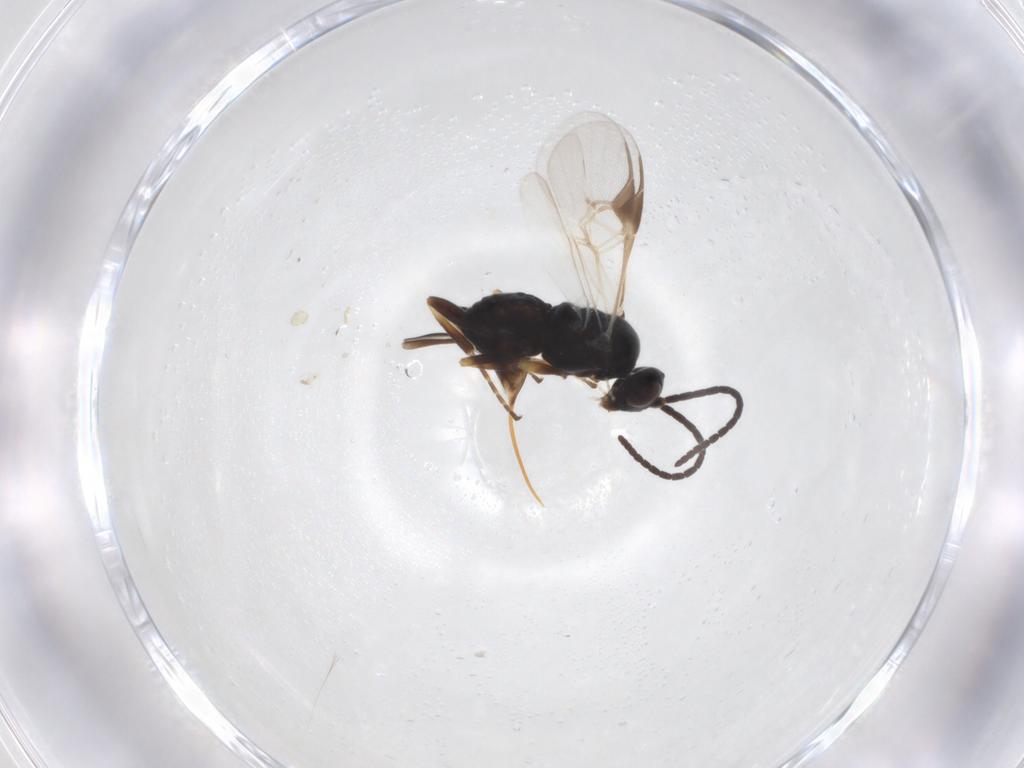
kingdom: Animalia
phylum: Arthropoda
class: Insecta
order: Hymenoptera
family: Braconidae
